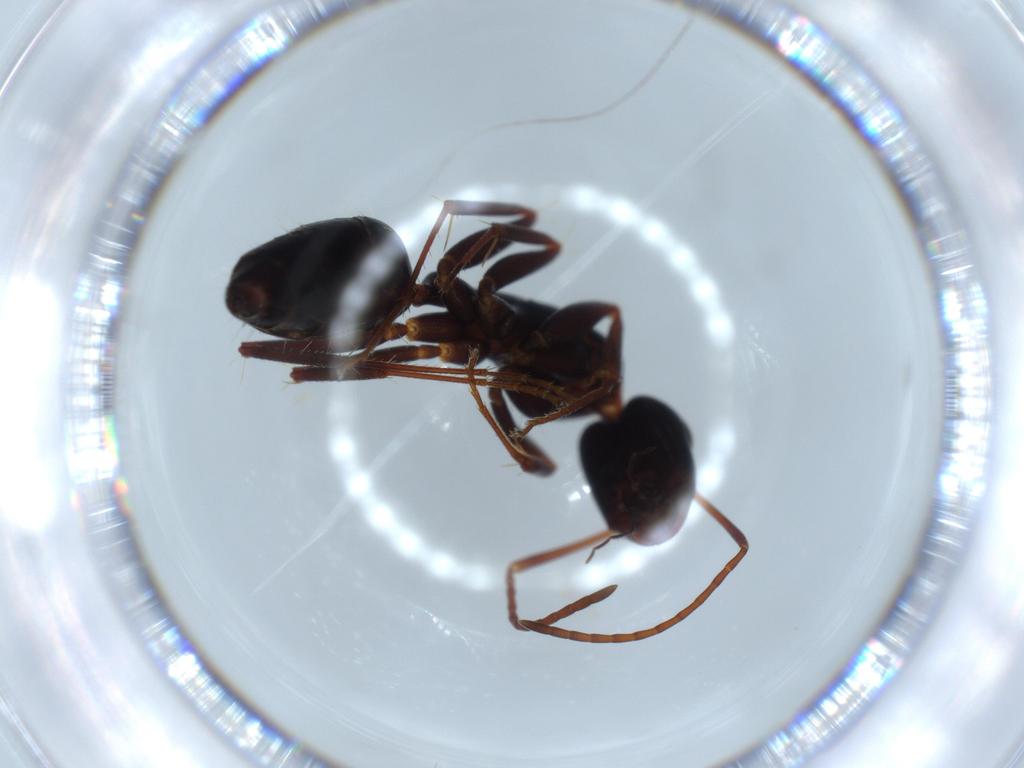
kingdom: Animalia
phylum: Arthropoda
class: Insecta
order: Hymenoptera
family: Formicidae
